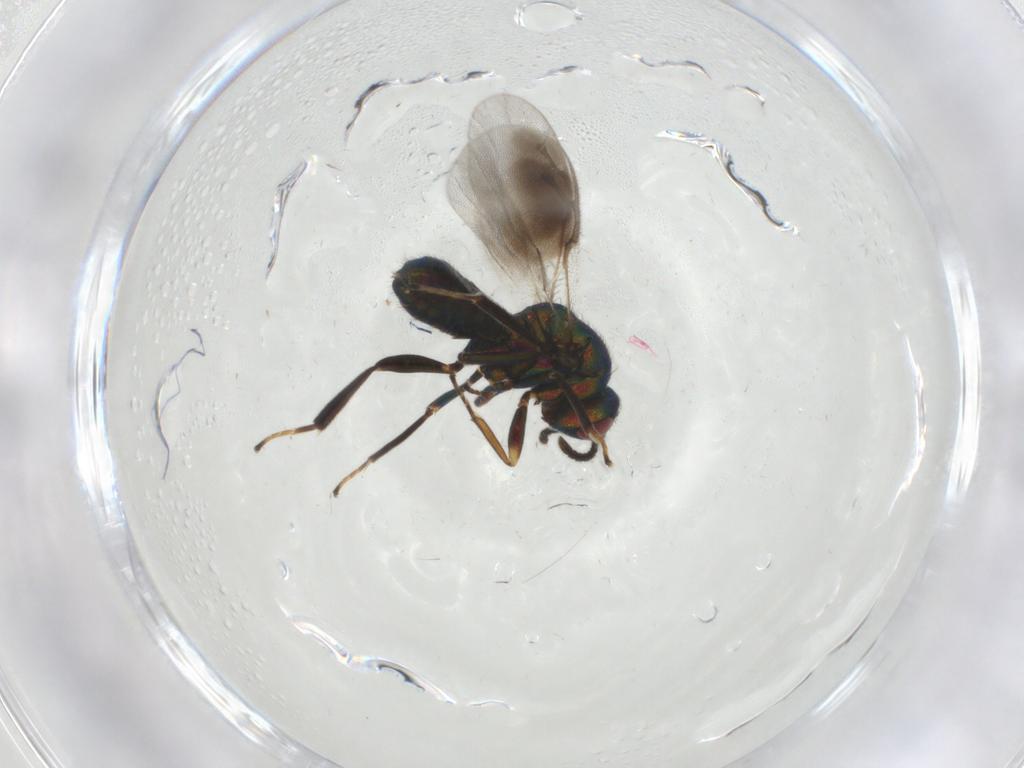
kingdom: Animalia
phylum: Arthropoda
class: Insecta
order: Hymenoptera
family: Pteromalidae
